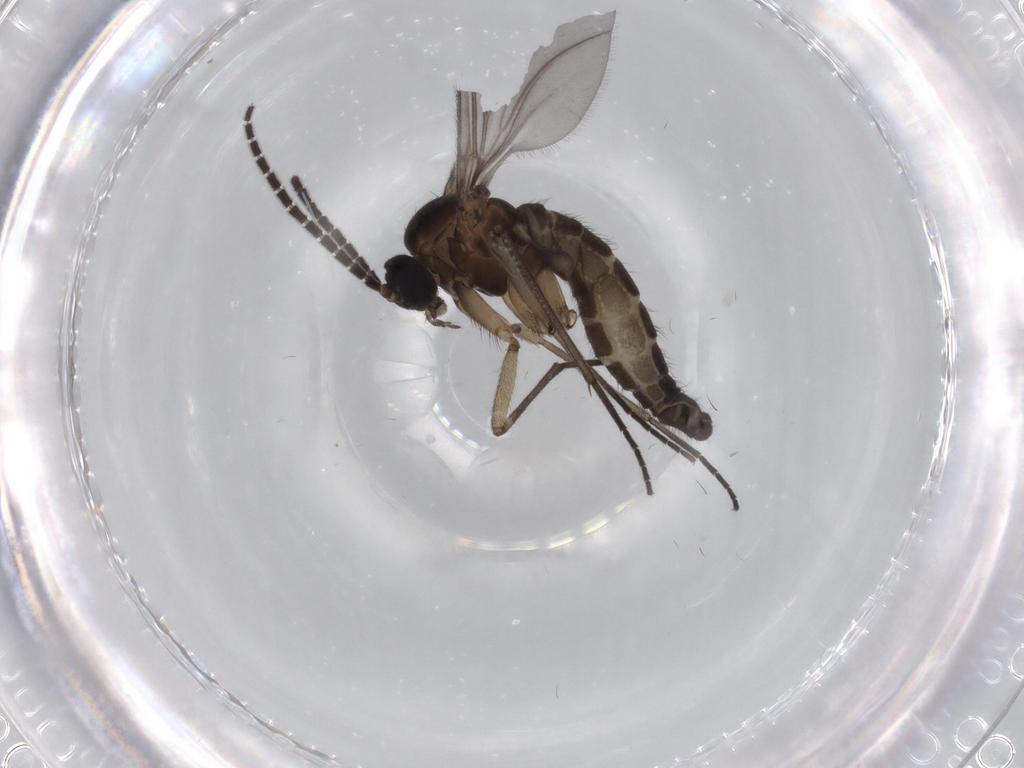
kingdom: Animalia
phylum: Arthropoda
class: Insecta
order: Diptera
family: Sciaridae
